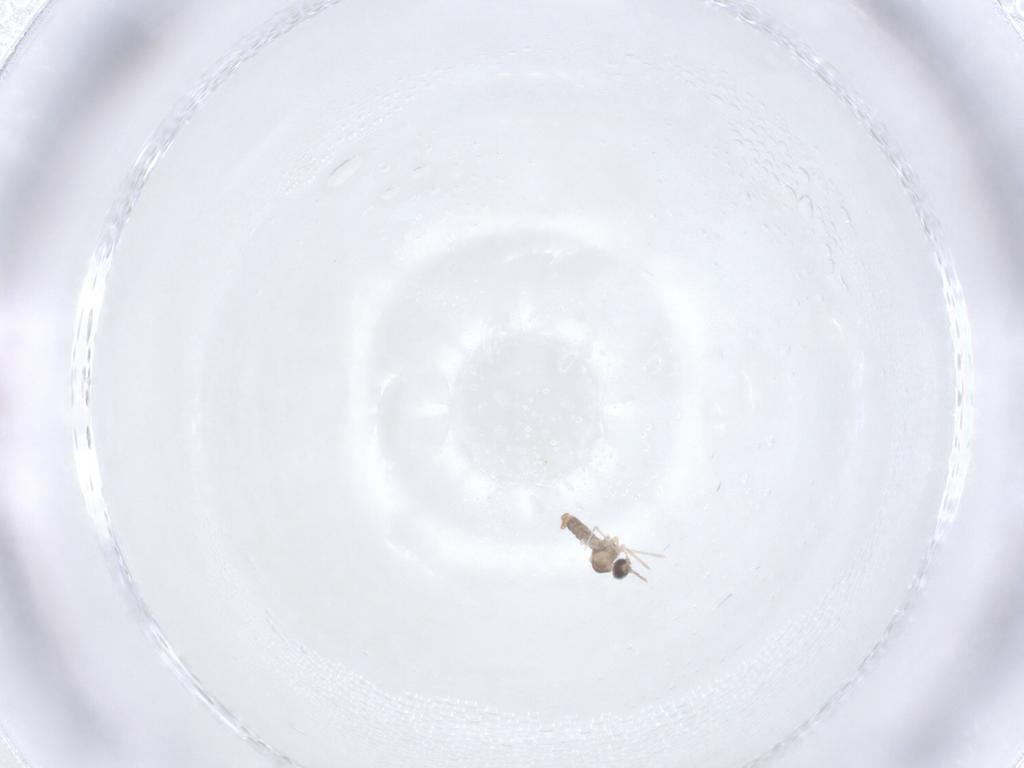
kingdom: Animalia
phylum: Arthropoda
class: Insecta
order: Diptera
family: Cecidomyiidae
